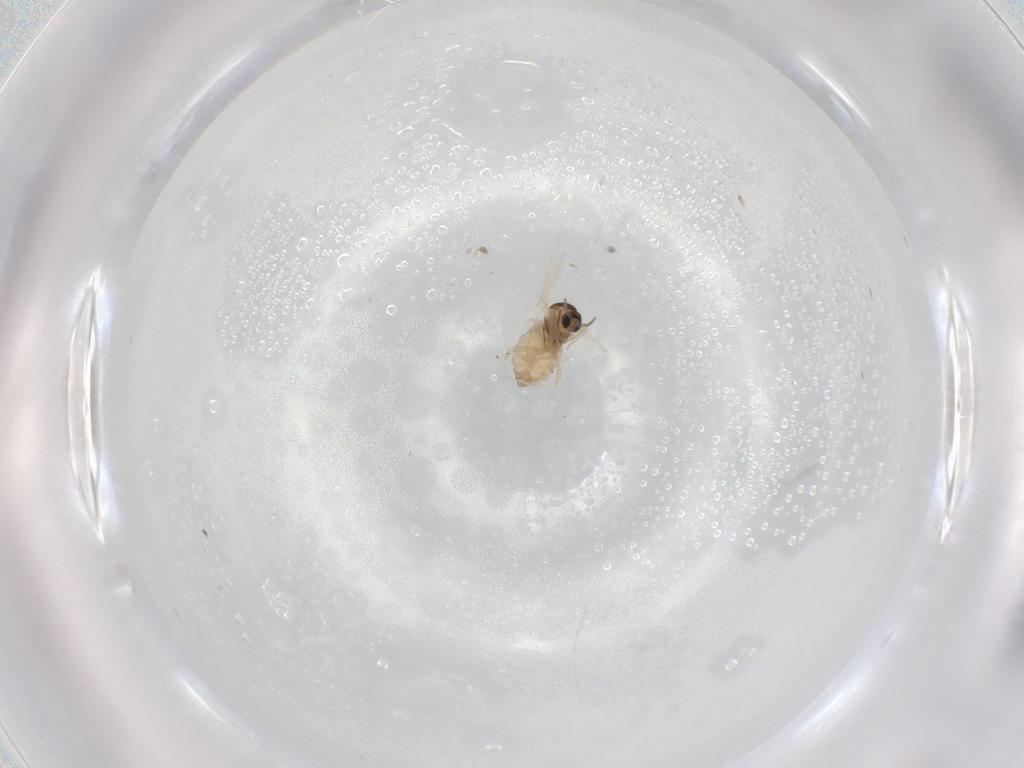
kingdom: Animalia
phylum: Arthropoda
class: Insecta
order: Diptera
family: Cecidomyiidae
